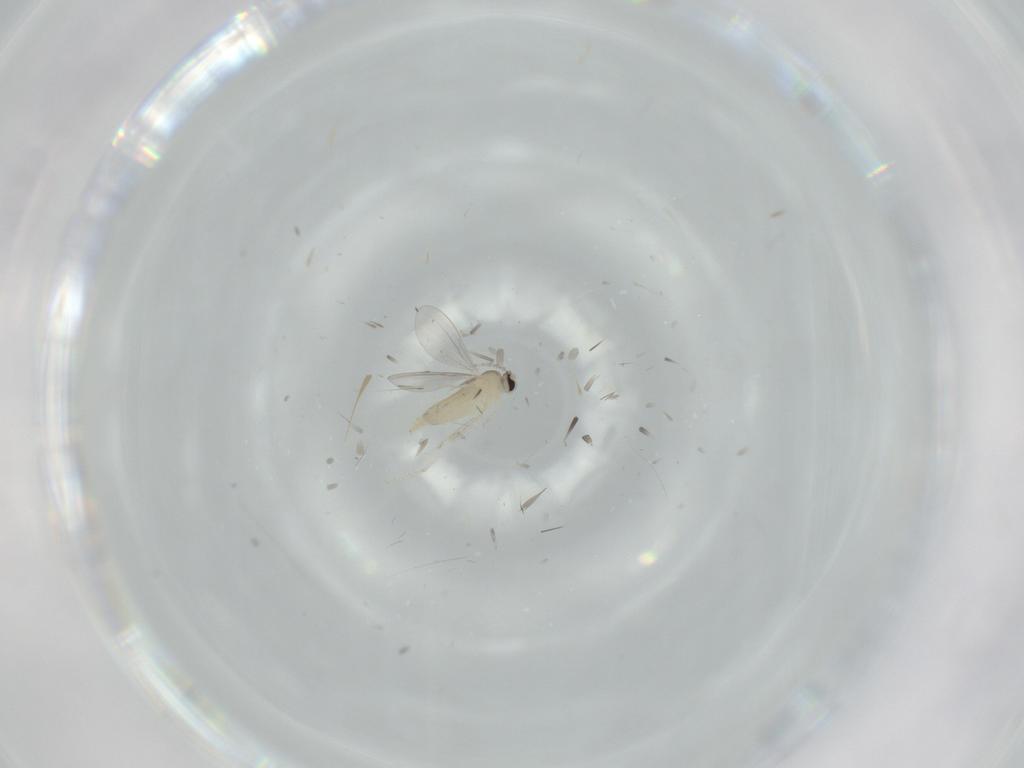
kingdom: Animalia
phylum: Arthropoda
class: Insecta
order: Diptera
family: Cecidomyiidae
